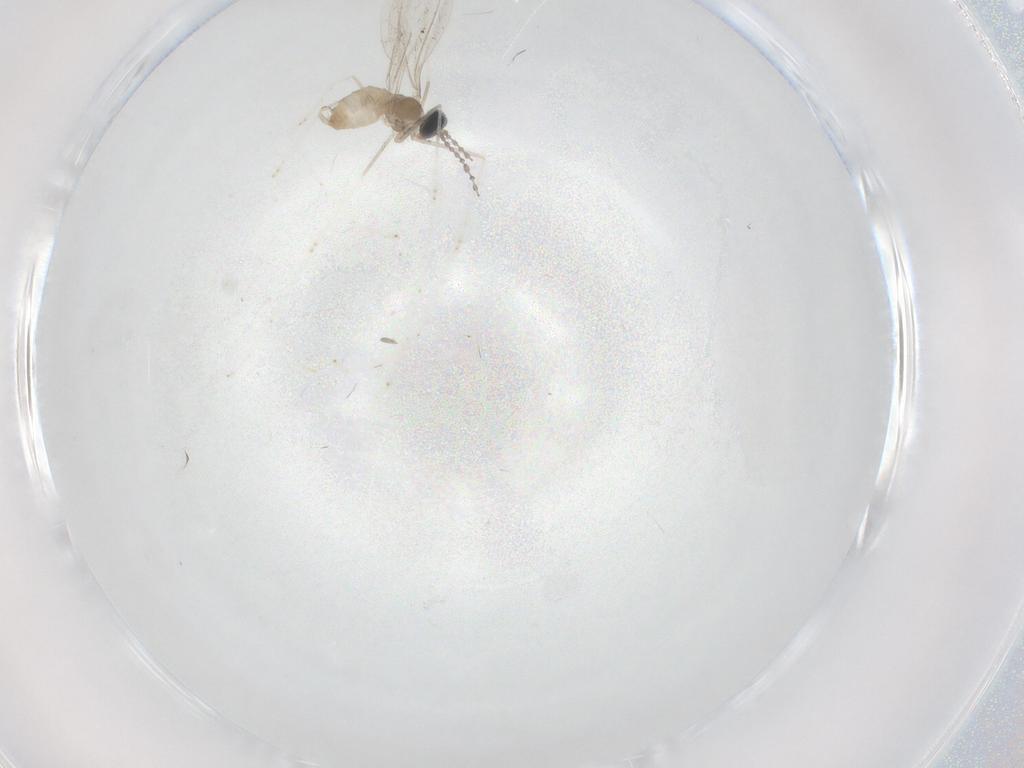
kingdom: Animalia
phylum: Arthropoda
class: Insecta
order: Diptera
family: Cecidomyiidae
